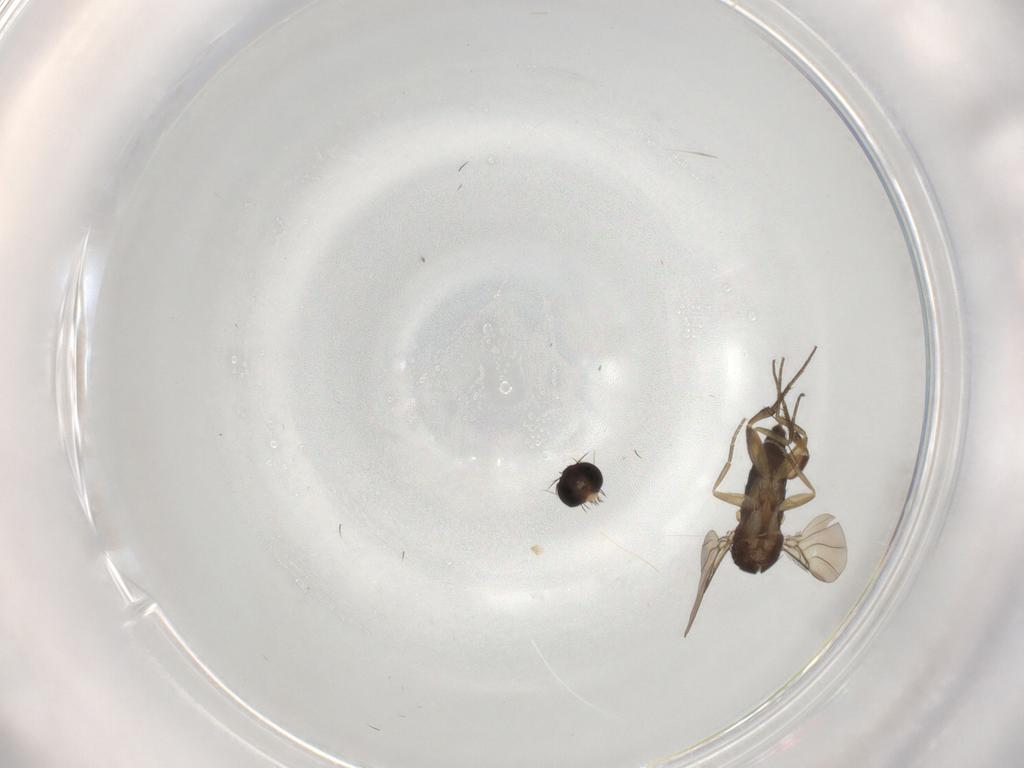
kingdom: Animalia
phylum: Arthropoda
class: Insecta
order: Diptera
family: Phoridae
